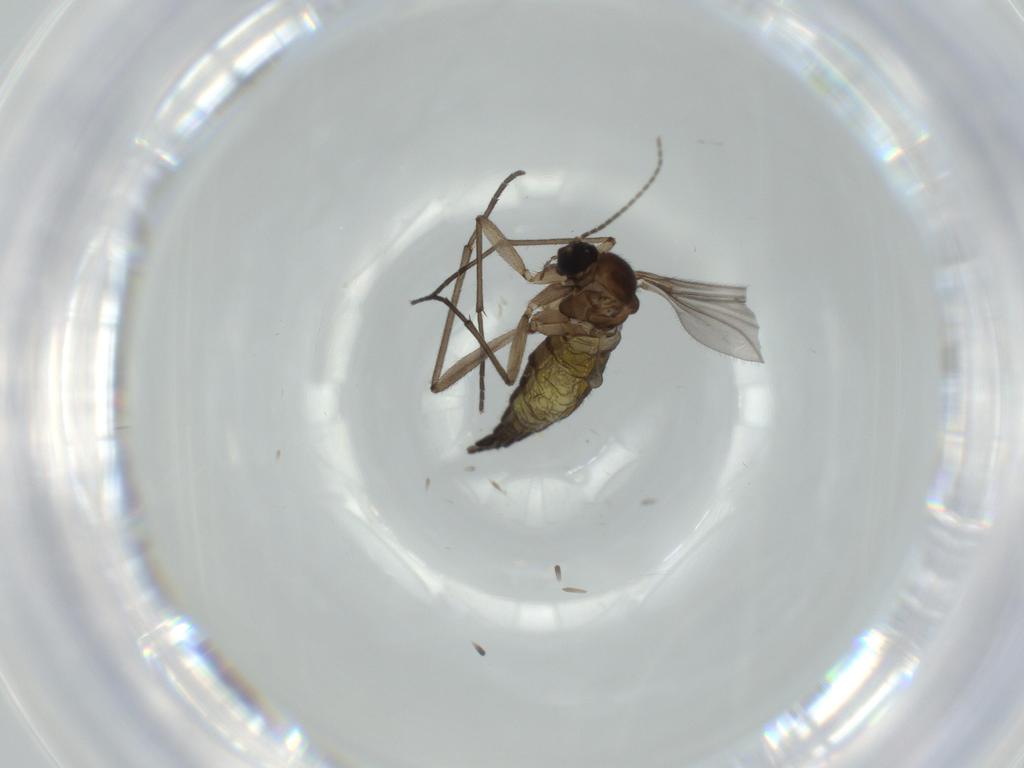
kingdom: Animalia
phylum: Arthropoda
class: Insecta
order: Diptera
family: Sciaridae
